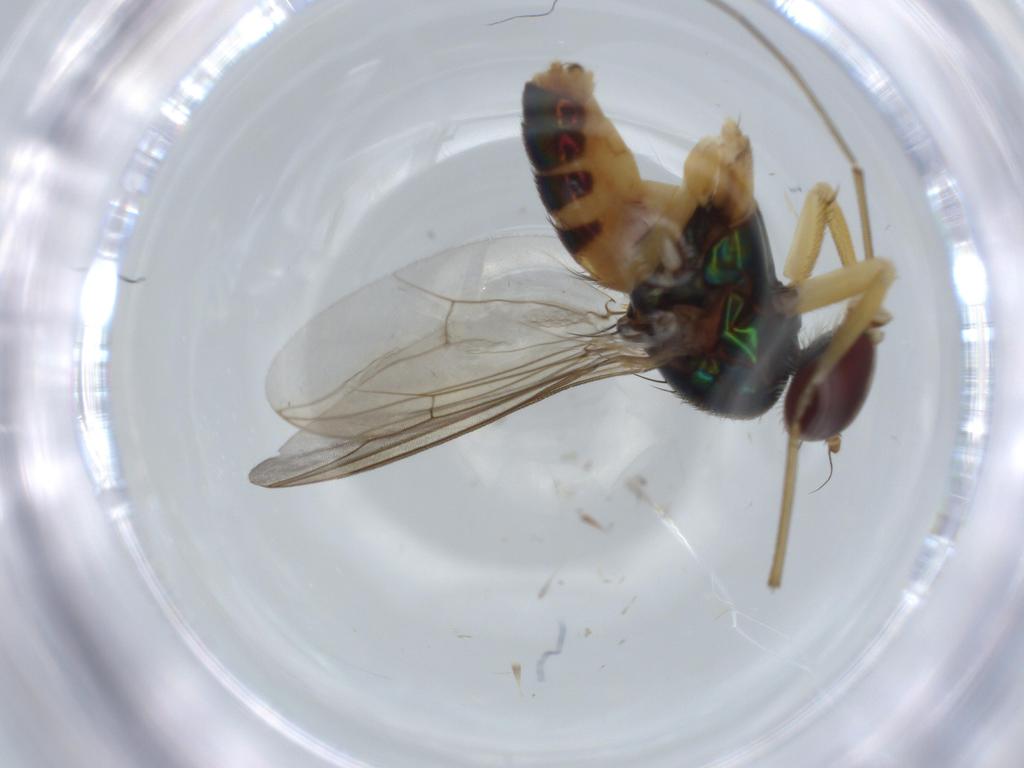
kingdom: Animalia
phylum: Arthropoda
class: Insecta
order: Diptera
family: Dolichopodidae
